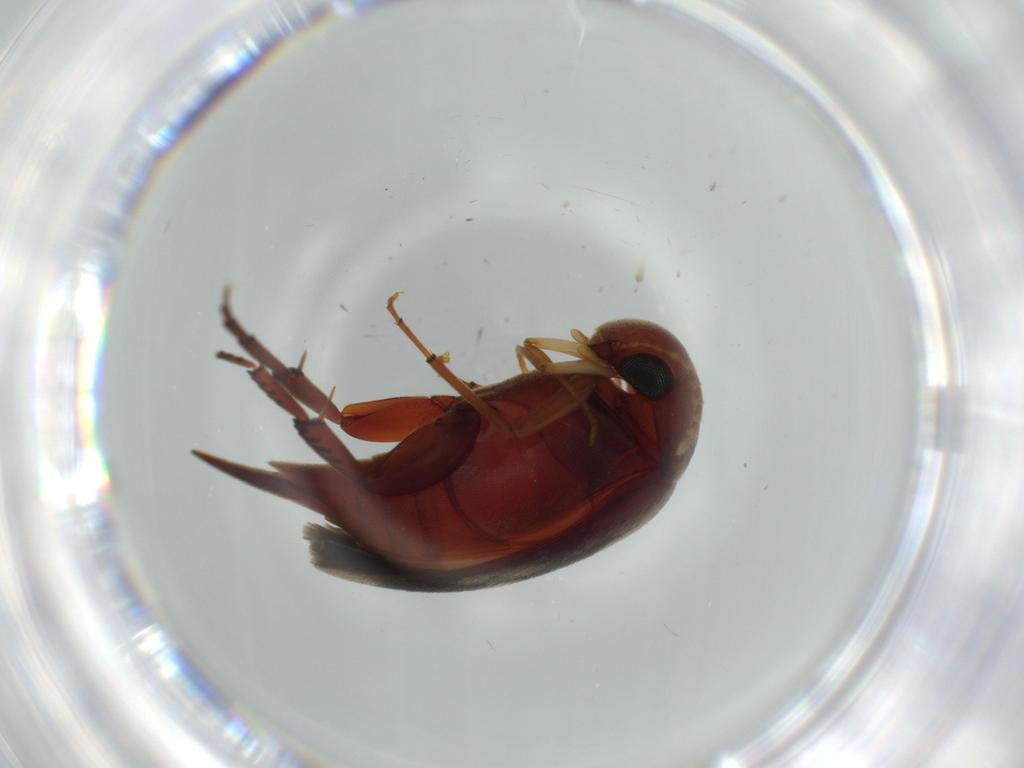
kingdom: Animalia
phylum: Arthropoda
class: Insecta
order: Coleoptera
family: Mordellidae
